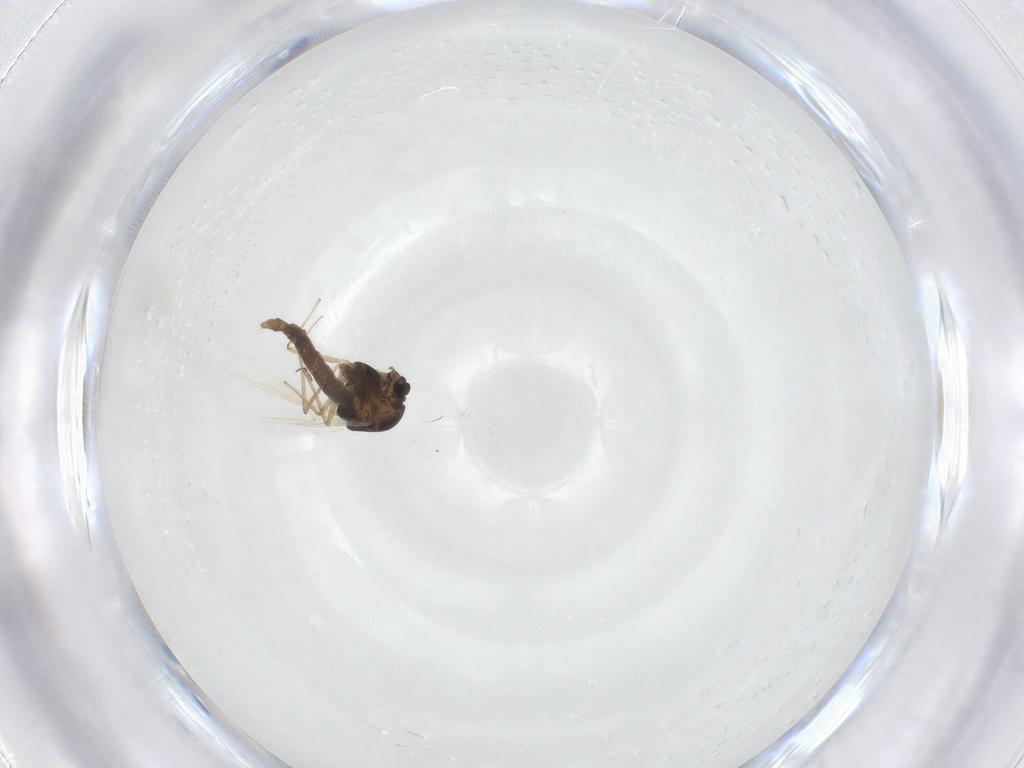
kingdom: Animalia
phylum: Arthropoda
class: Insecta
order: Diptera
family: Chironomidae
